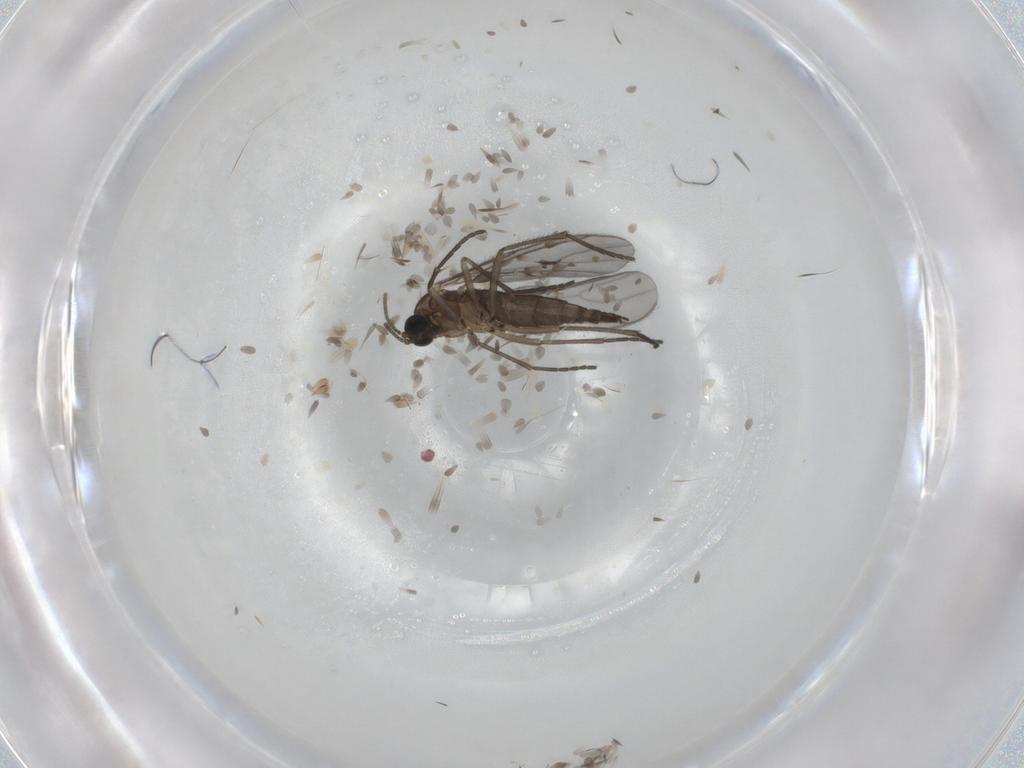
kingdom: Animalia
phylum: Arthropoda
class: Insecta
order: Diptera
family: Sciaridae
